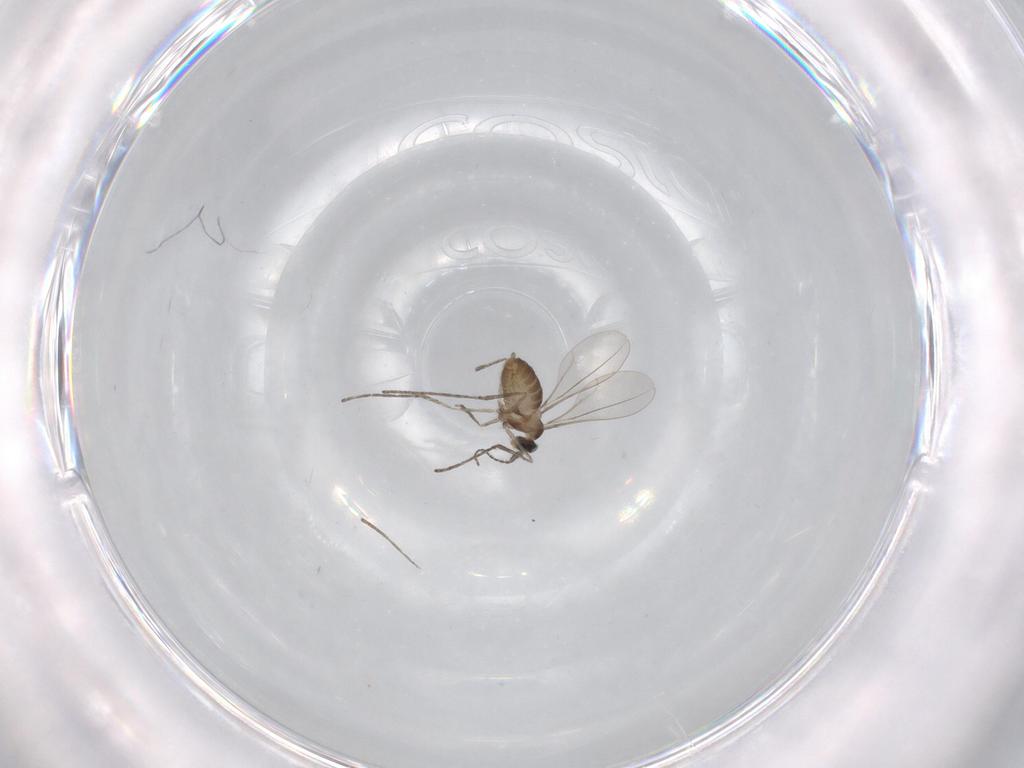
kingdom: Animalia
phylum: Arthropoda
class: Insecta
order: Diptera
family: Cecidomyiidae
